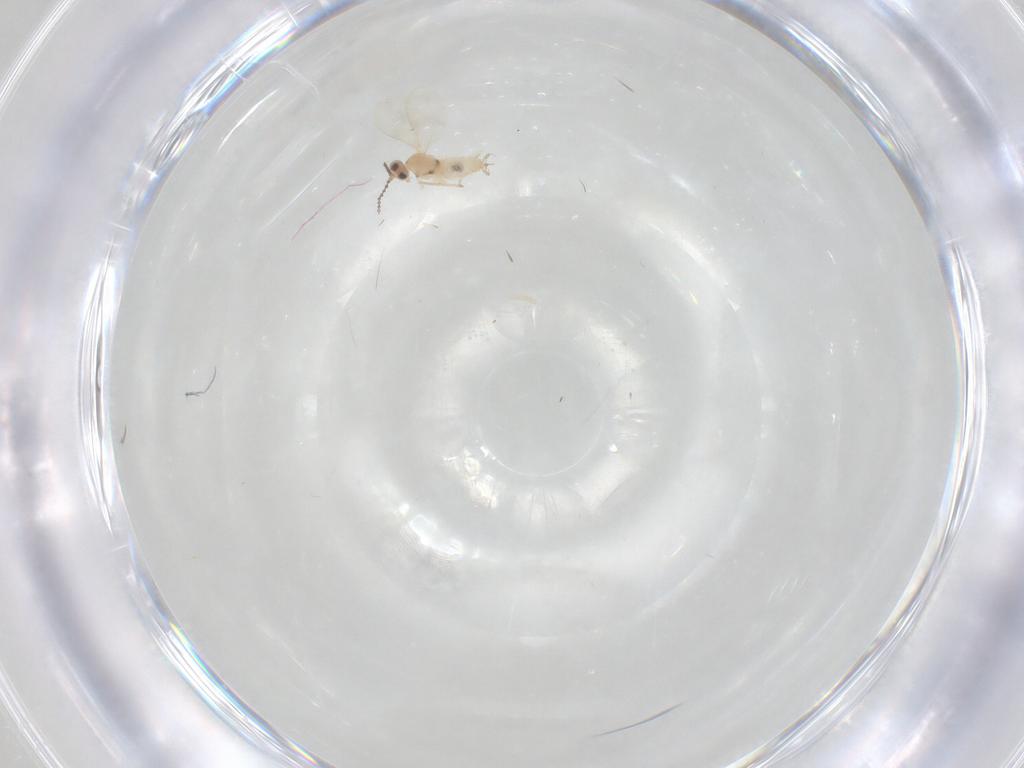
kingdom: Animalia
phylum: Arthropoda
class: Insecta
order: Diptera
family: Cecidomyiidae
